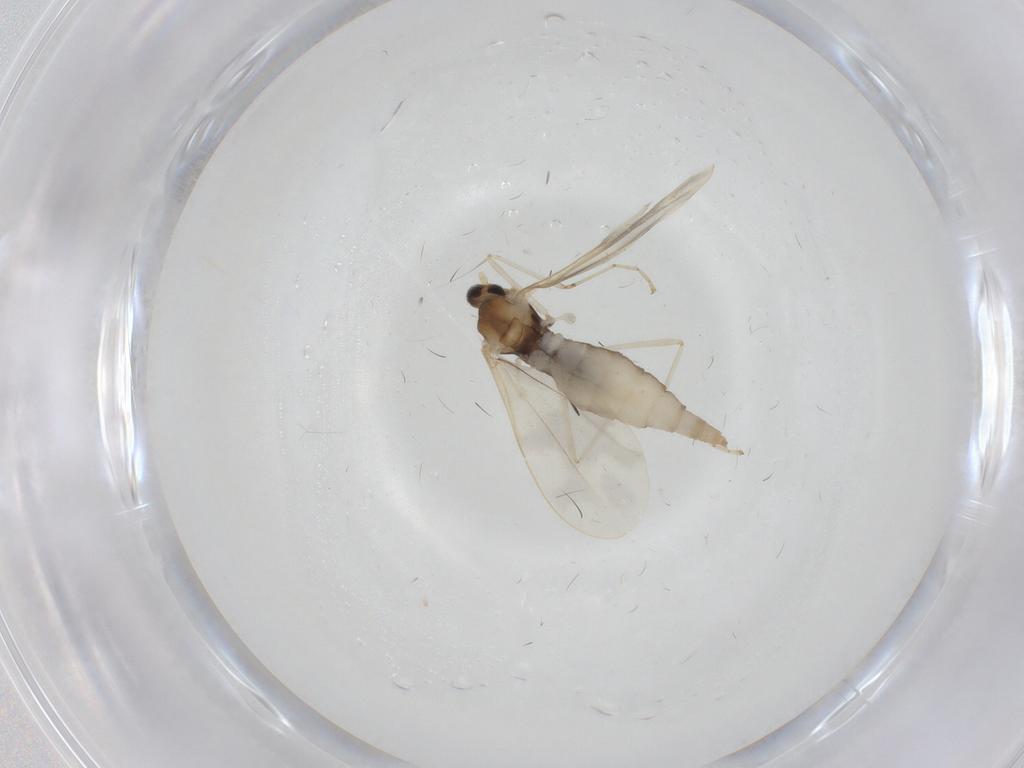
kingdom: Animalia
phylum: Arthropoda
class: Insecta
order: Diptera
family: Cecidomyiidae
